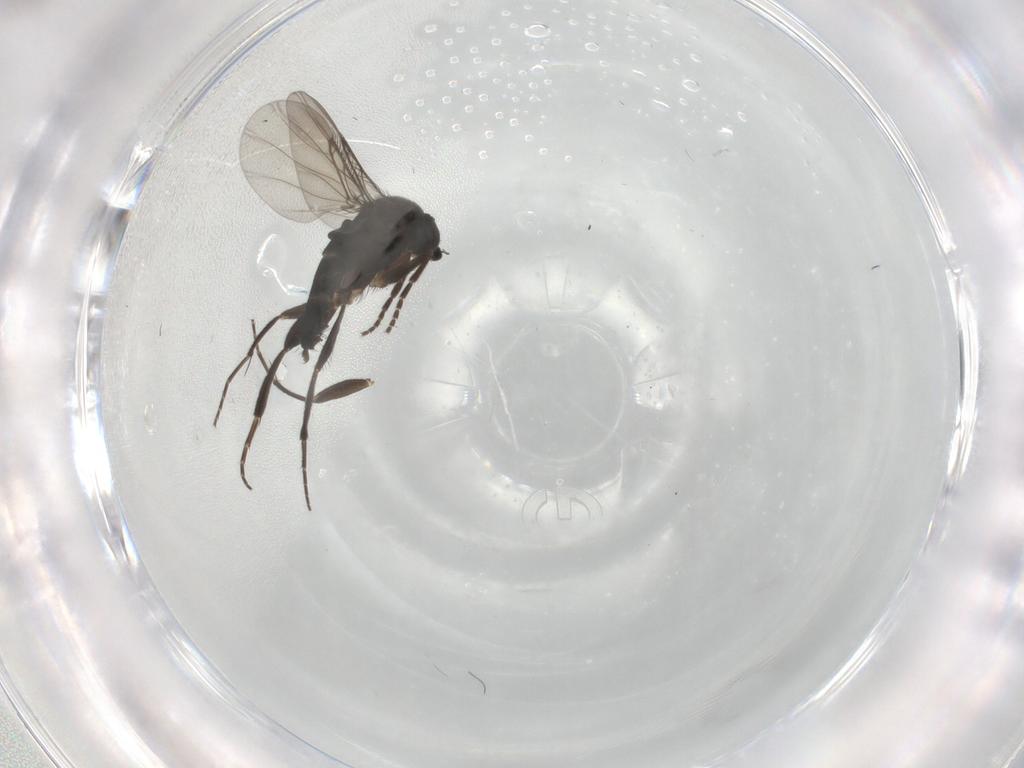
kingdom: Animalia
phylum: Arthropoda
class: Insecta
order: Diptera
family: Phoridae
